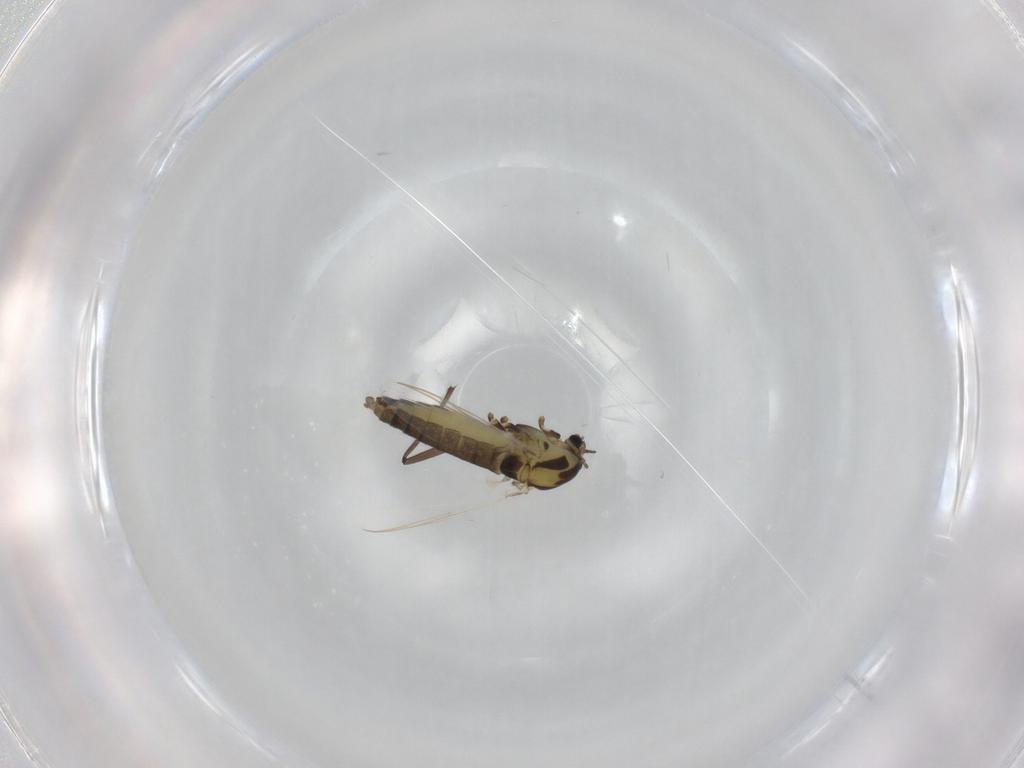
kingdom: Animalia
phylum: Arthropoda
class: Insecta
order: Diptera
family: Chironomidae
